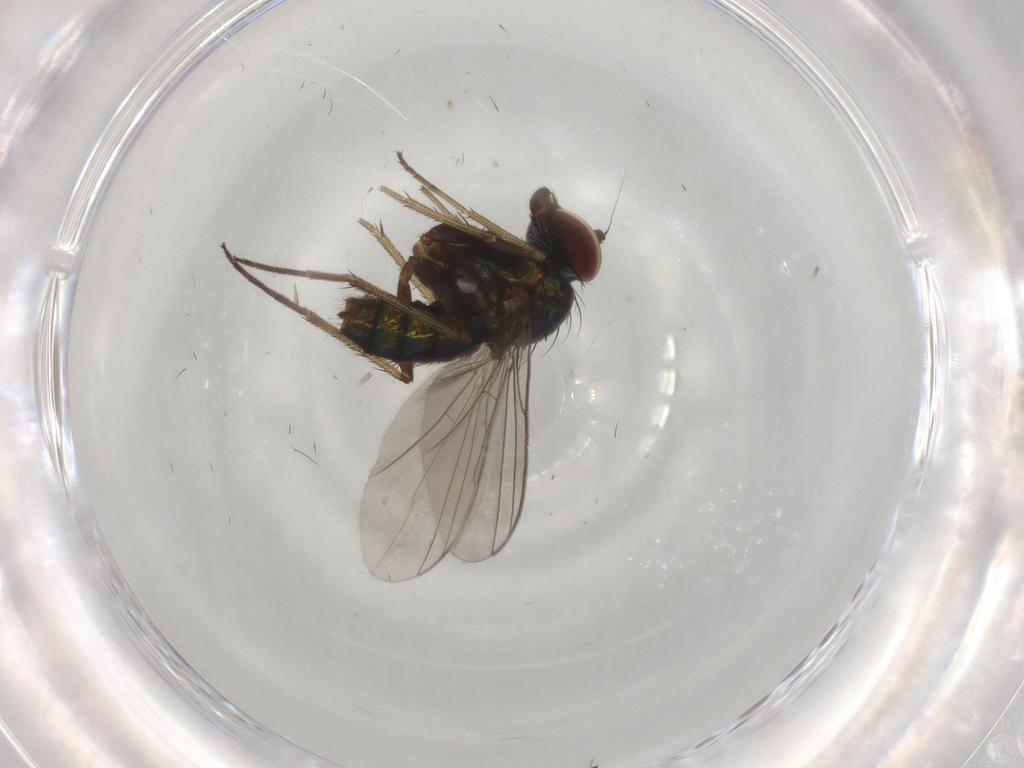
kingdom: Animalia
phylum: Arthropoda
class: Insecta
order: Diptera
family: Dolichopodidae
